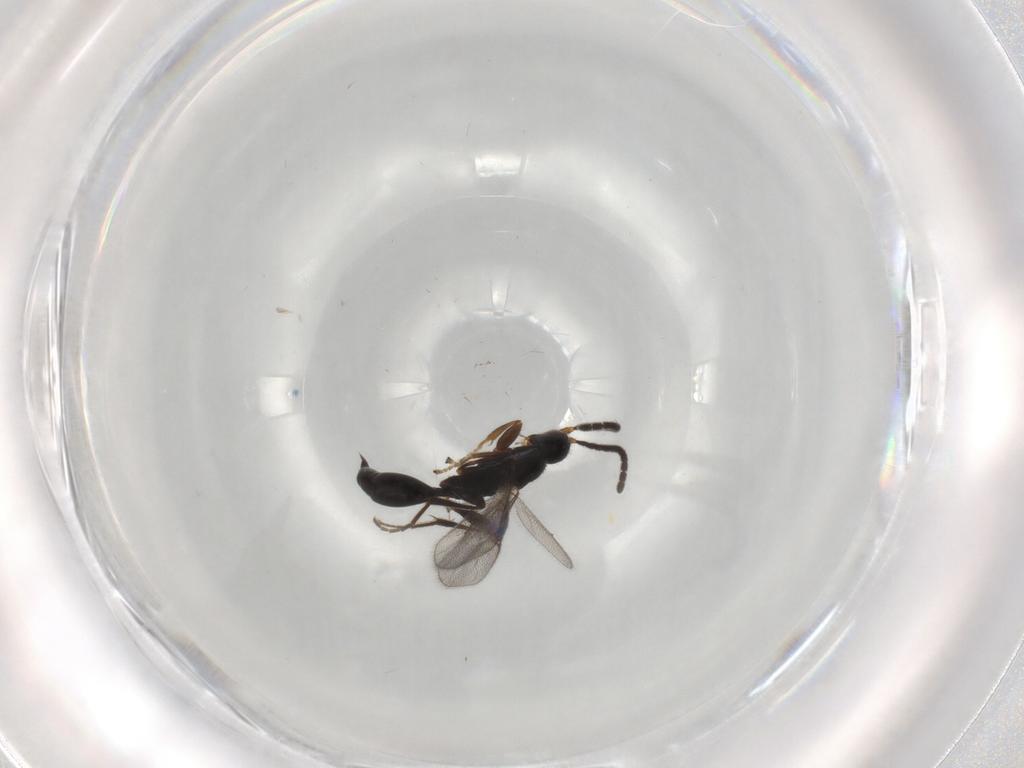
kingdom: Animalia
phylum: Arthropoda
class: Insecta
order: Hymenoptera
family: Proctotrupidae
